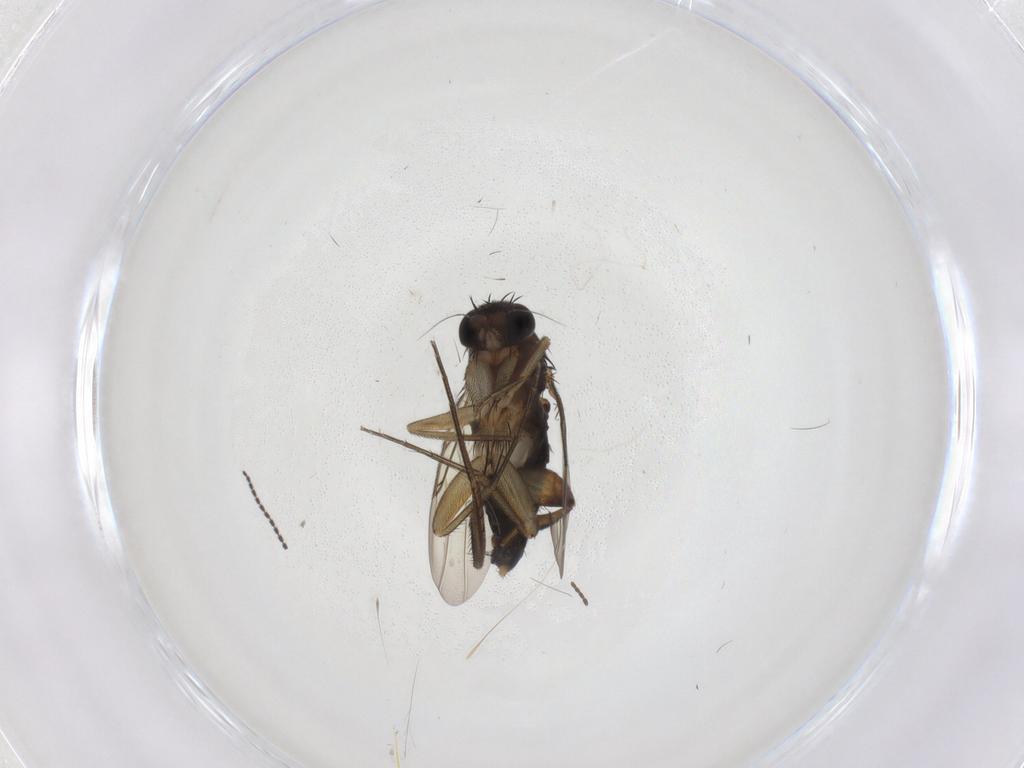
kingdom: Animalia
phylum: Arthropoda
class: Insecta
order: Diptera
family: Phoridae
